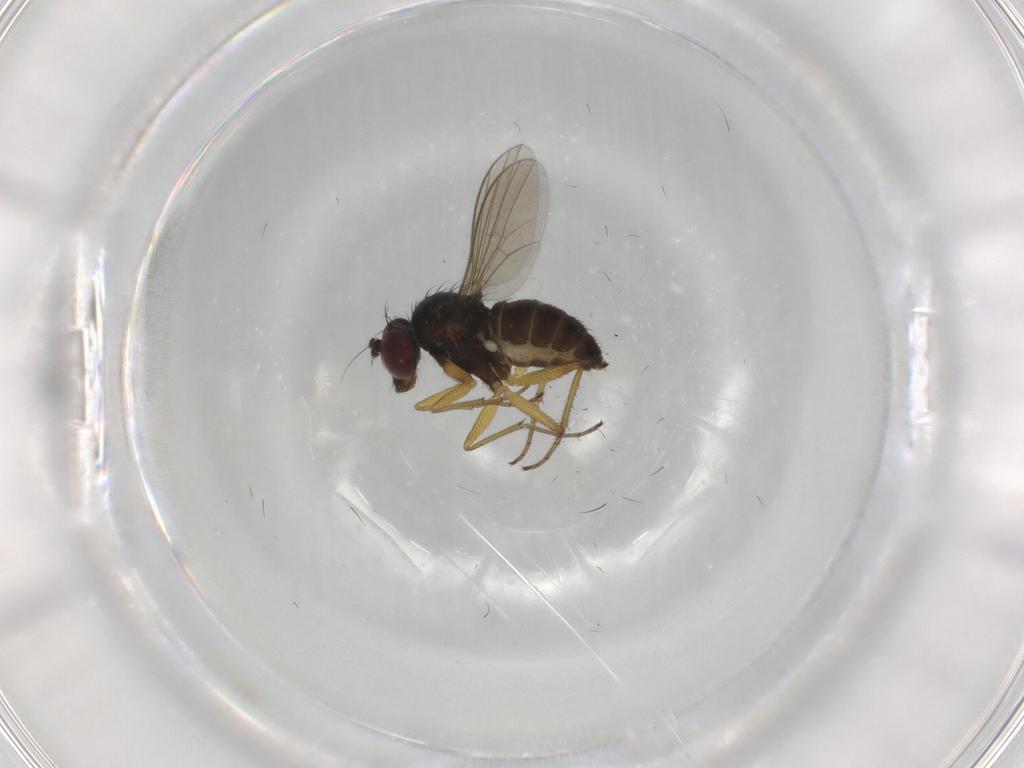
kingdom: Animalia
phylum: Arthropoda
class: Insecta
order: Diptera
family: Dolichopodidae
